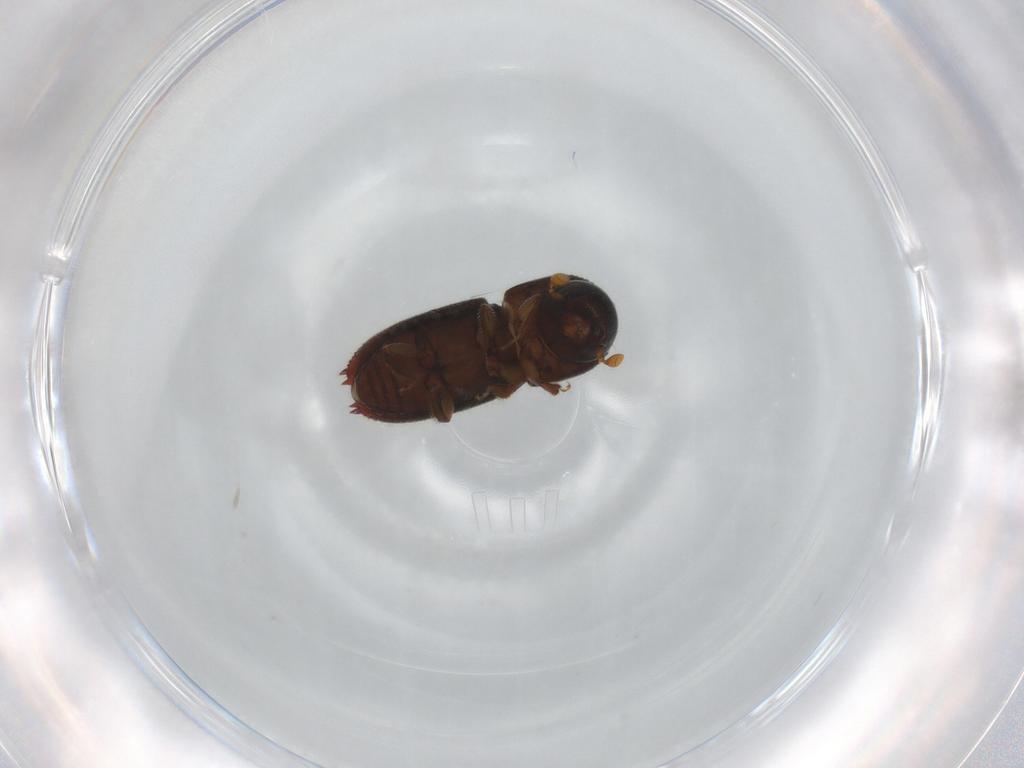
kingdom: Animalia
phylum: Arthropoda
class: Insecta
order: Coleoptera
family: Curculionidae
